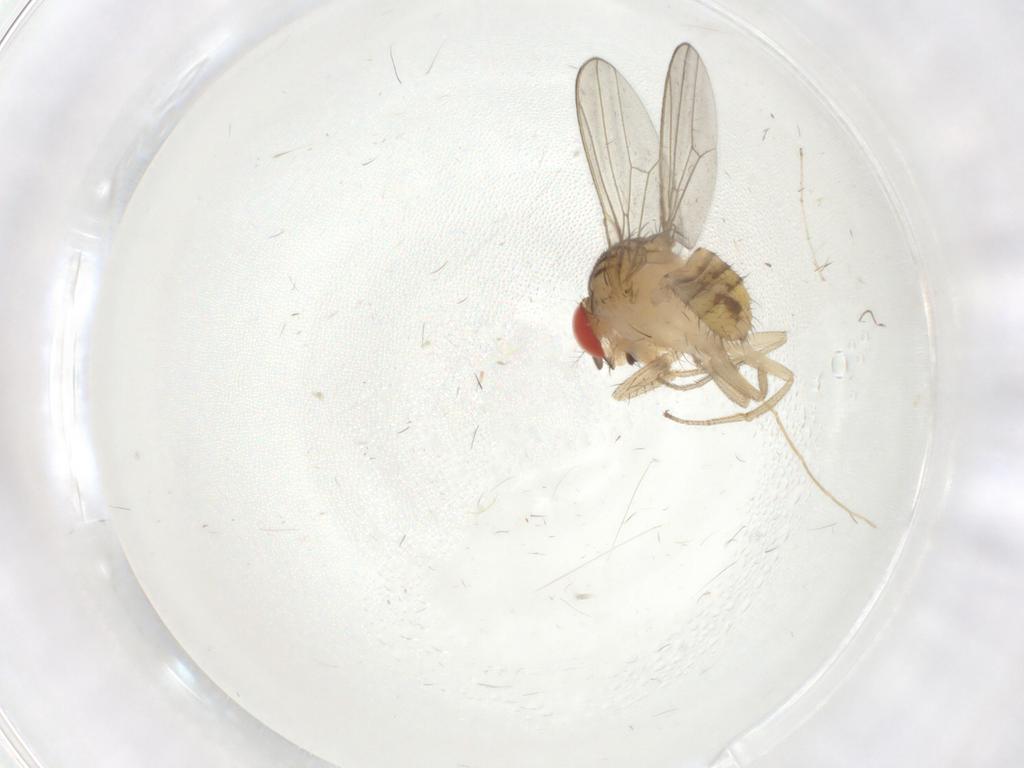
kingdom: Animalia
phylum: Arthropoda
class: Insecta
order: Diptera
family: Drosophilidae
